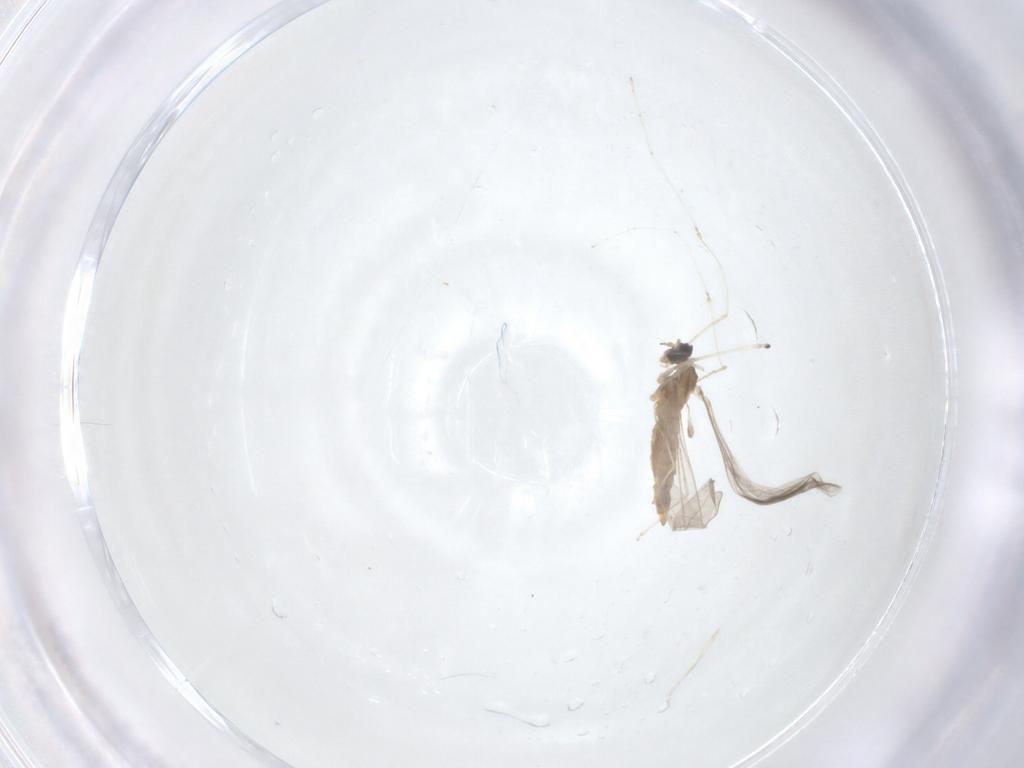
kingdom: Animalia
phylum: Arthropoda
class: Insecta
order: Diptera
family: Cecidomyiidae
